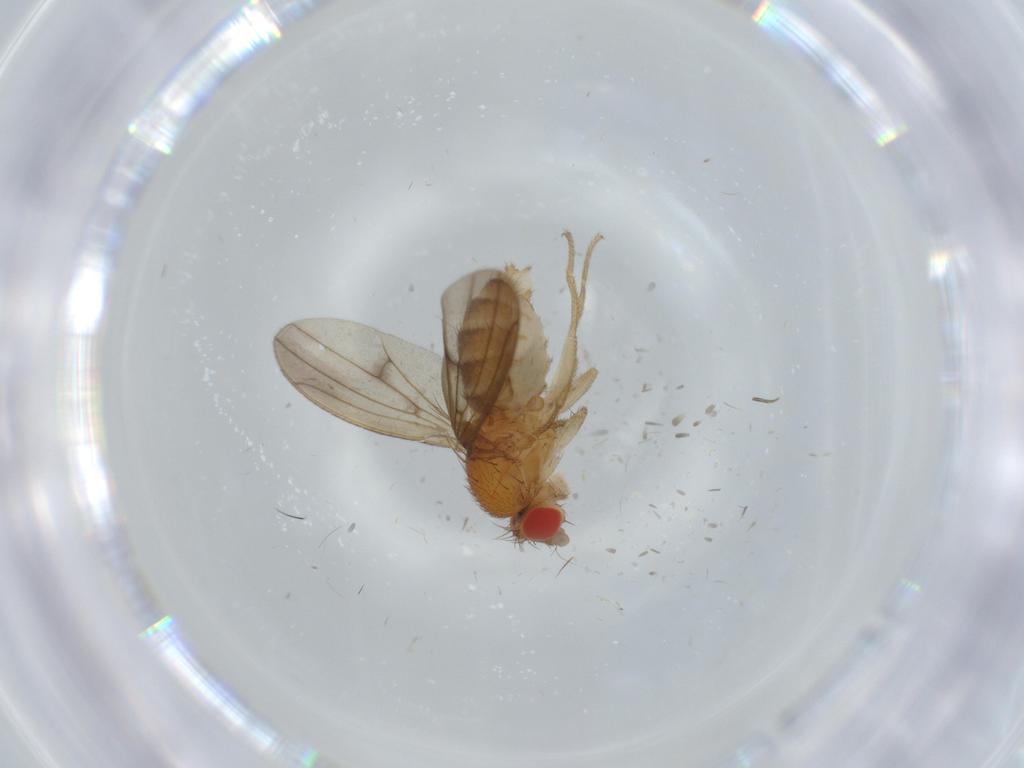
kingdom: Animalia
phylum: Arthropoda
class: Insecta
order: Diptera
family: Drosophilidae
